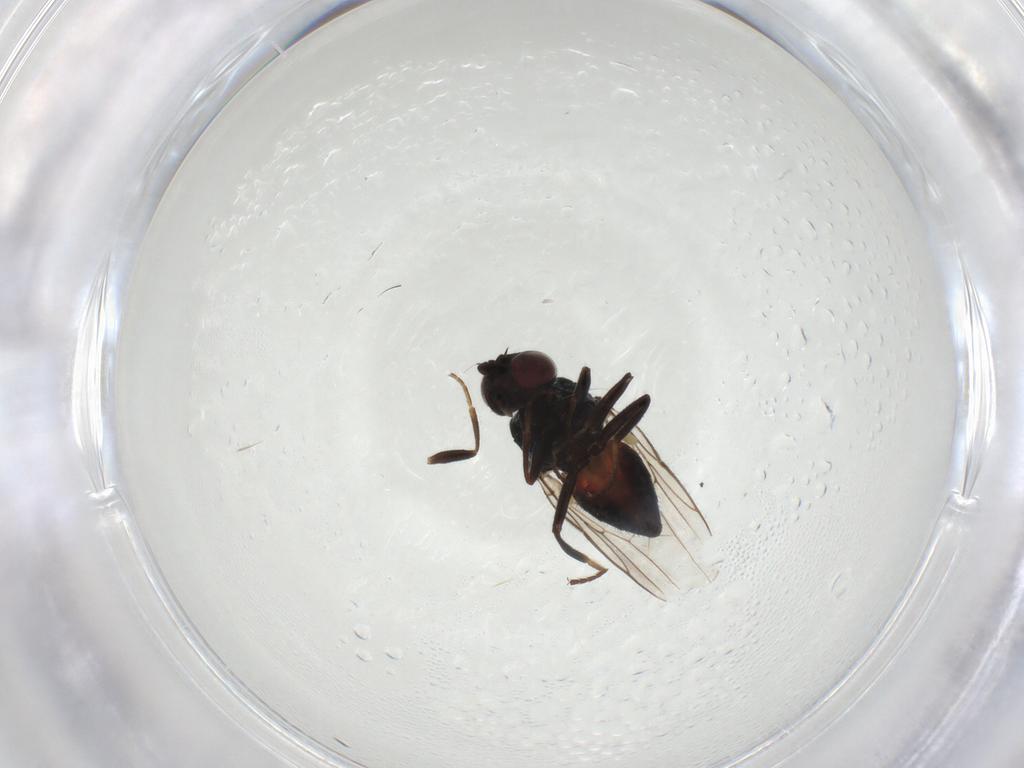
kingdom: Animalia
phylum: Arthropoda
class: Insecta
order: Diptera
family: Chloropidae
